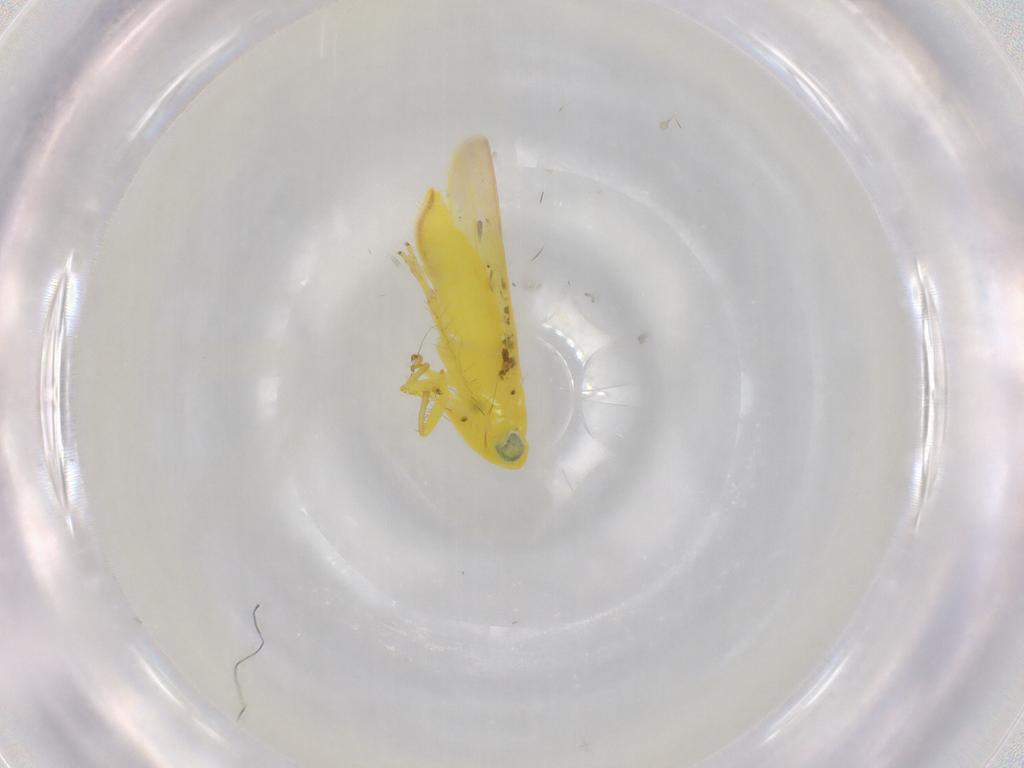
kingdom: Animalia
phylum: Arthropoda
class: Insecta
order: Hemiptera
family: Cicadellidae
